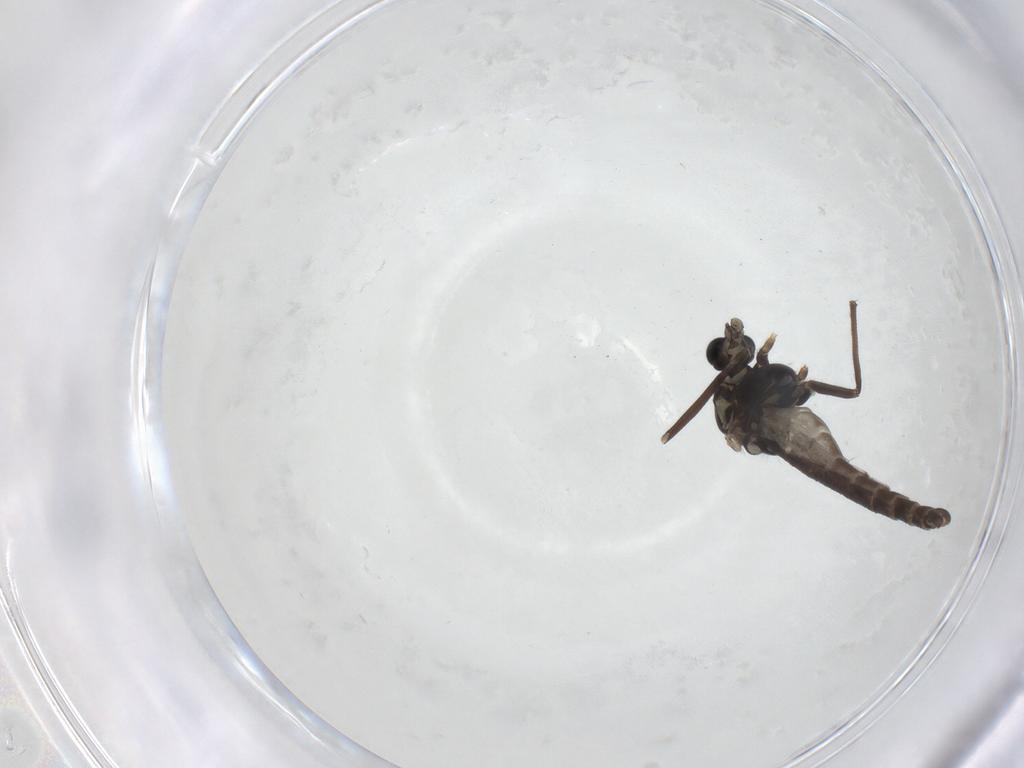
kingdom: Animalia
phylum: Arthropoda
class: Insecta
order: Diptera
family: Chironomidae
